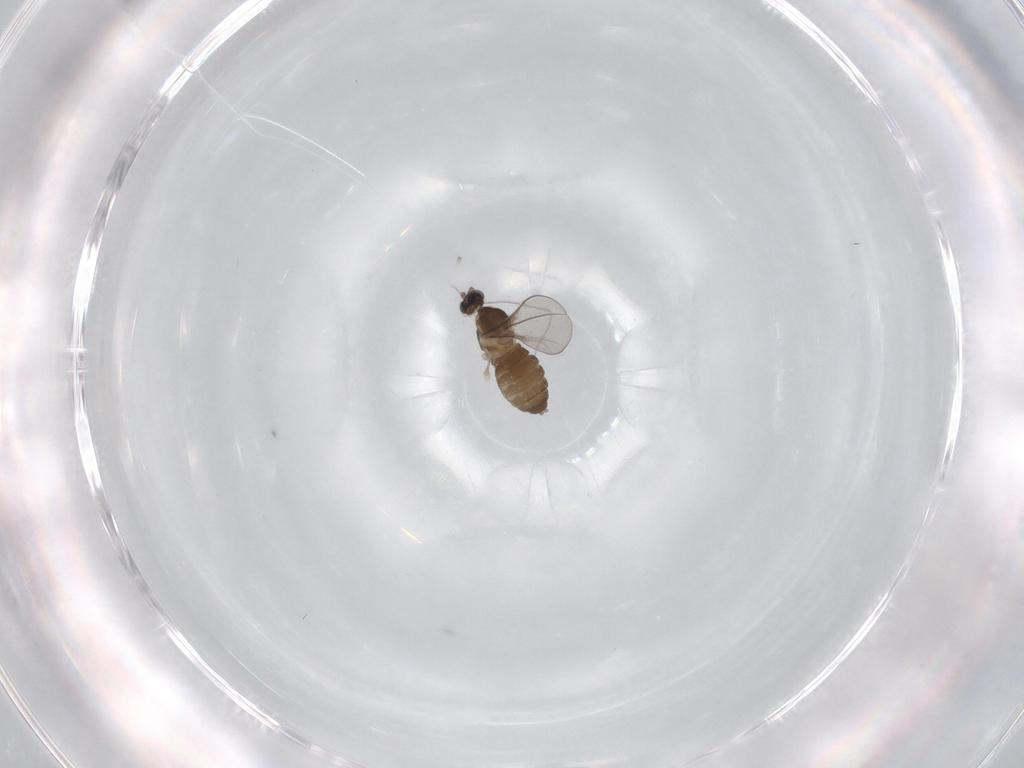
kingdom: Animalia
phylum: Arthropoda
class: Insecta
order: Diptera
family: Cecidomyiidae
